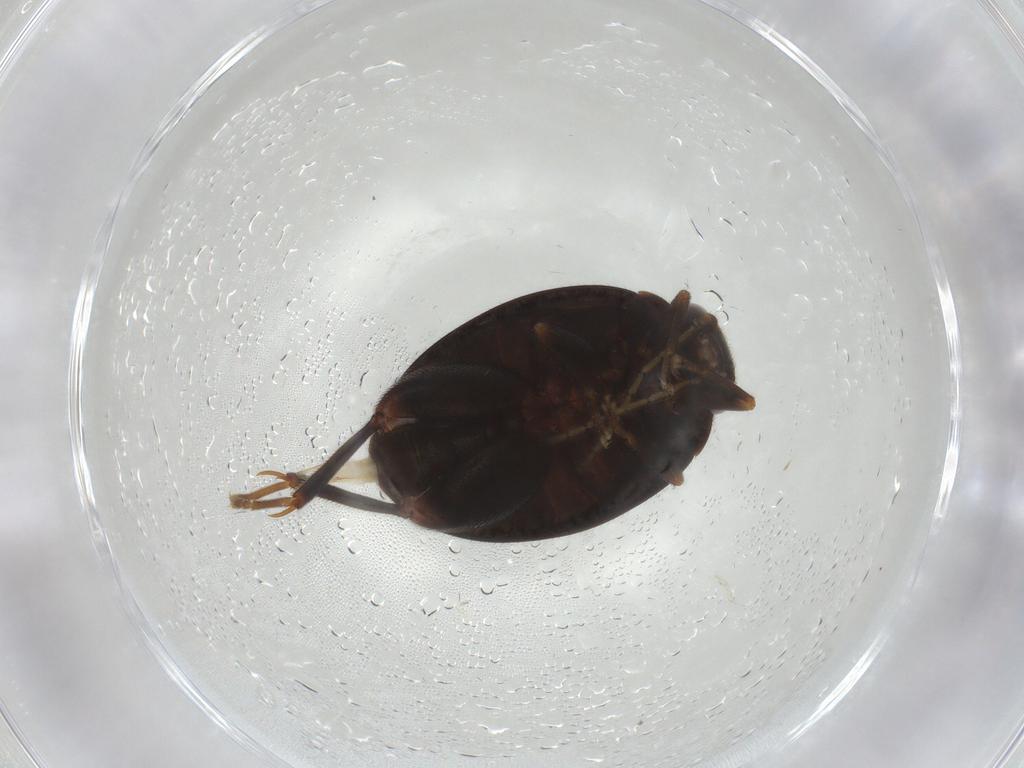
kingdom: Animalia
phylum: Arthropoda
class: Insecta
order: Coleoptera
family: Scirtidae
